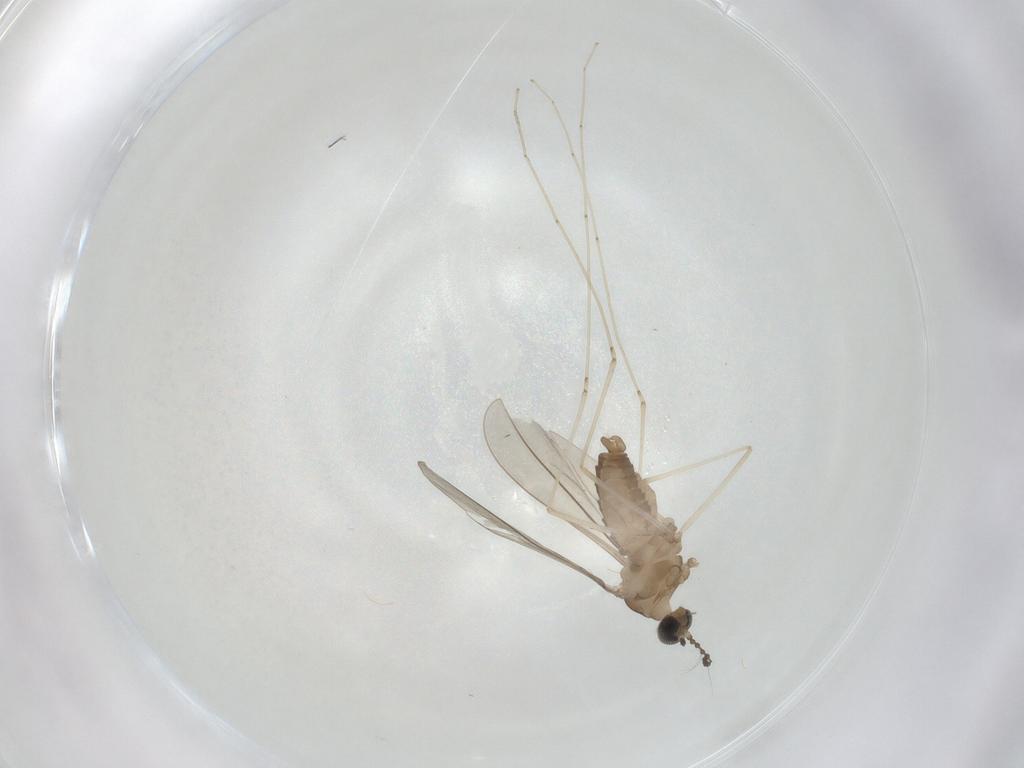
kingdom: Animalia
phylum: Arthropoda
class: Insecta
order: Diptera
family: Cecidomyiidae
